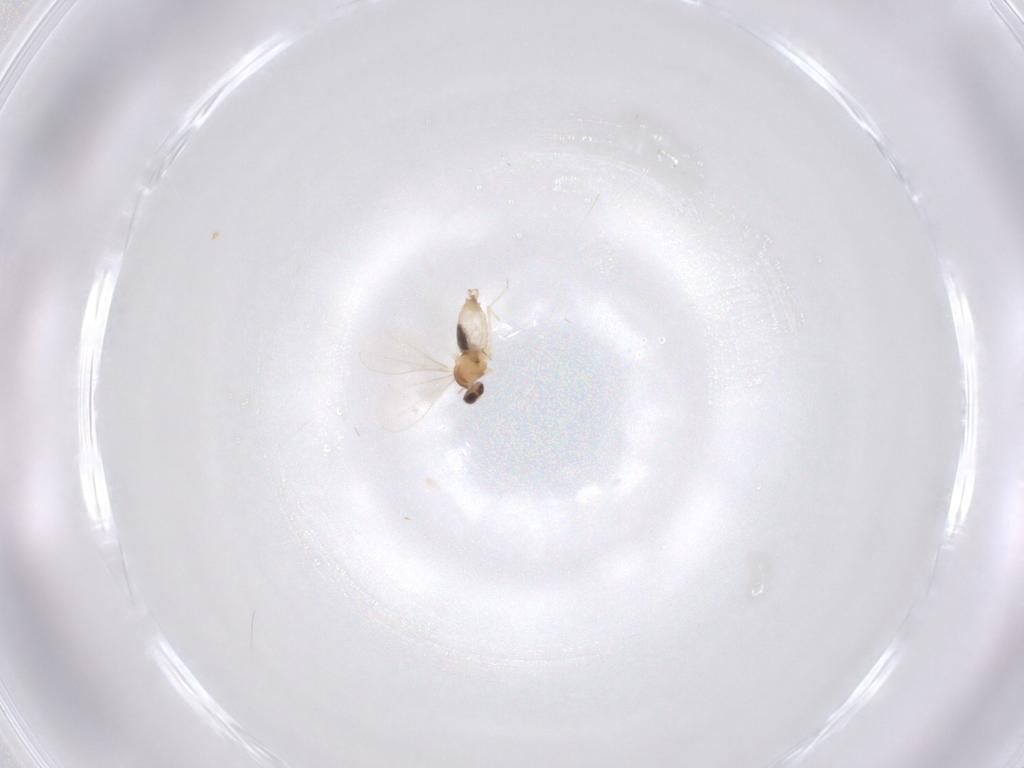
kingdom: Animalia
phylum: Arthropoda
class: Insecta
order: Diptera
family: Cecidomyiidae
